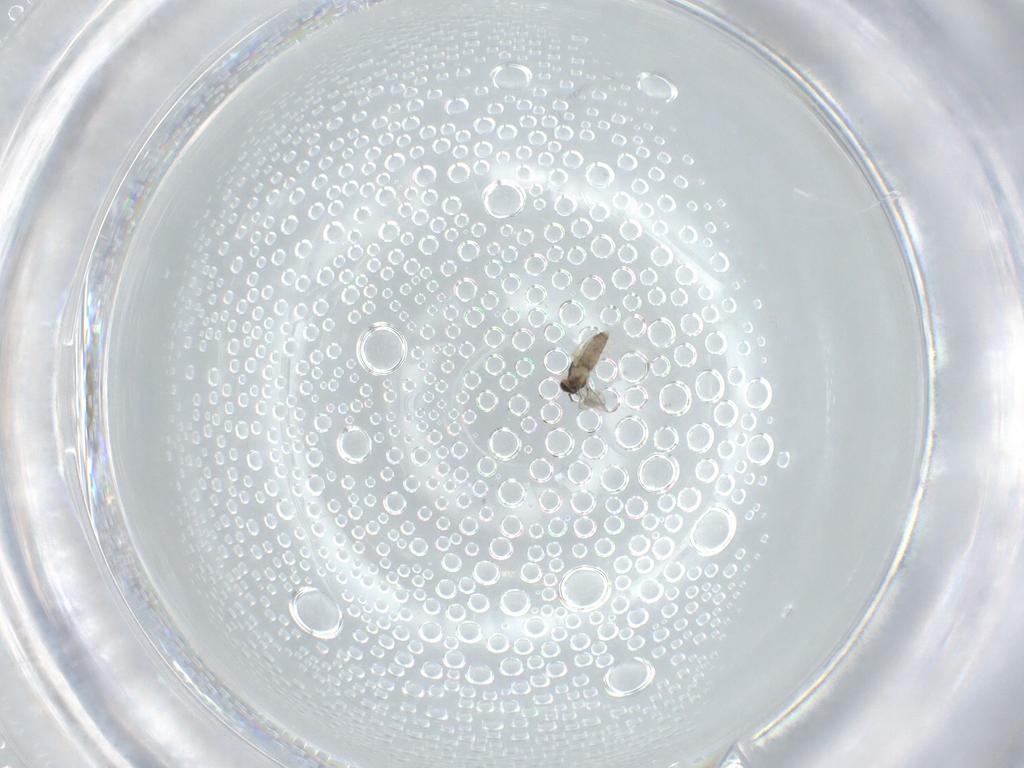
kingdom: Animalia
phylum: Arthropoda
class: Insecta
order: Diptera
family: Cecidomyiidae
